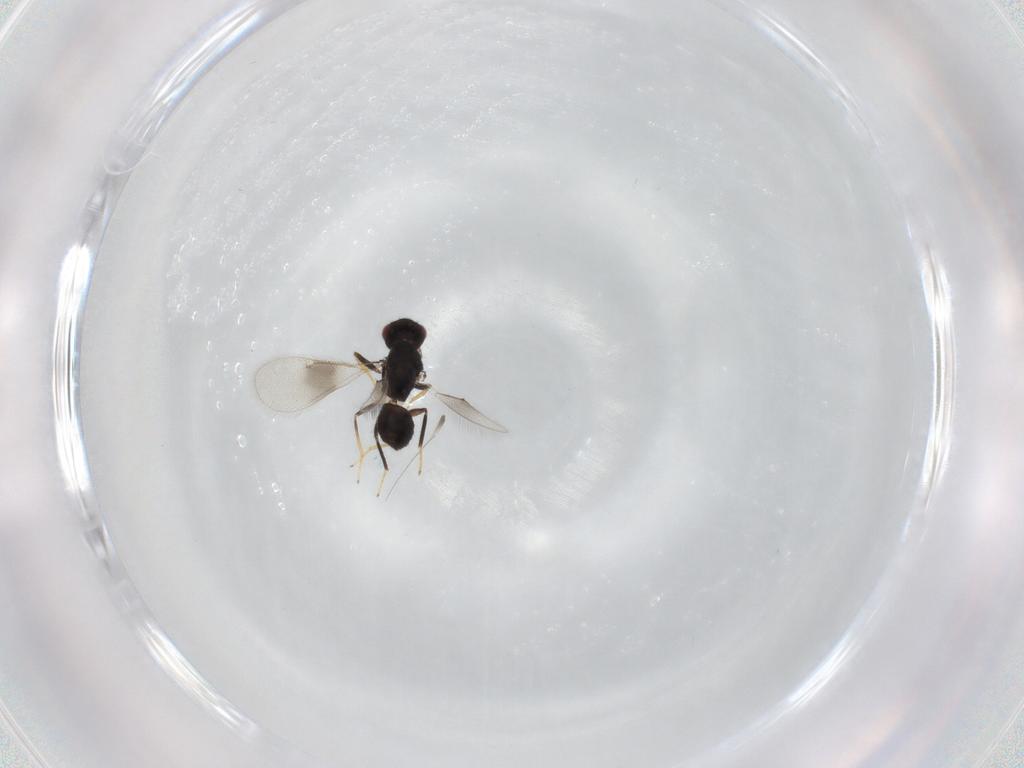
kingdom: Animalia
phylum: Arthropoda
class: Insecta
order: Hymenoptera
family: Eulophidae
